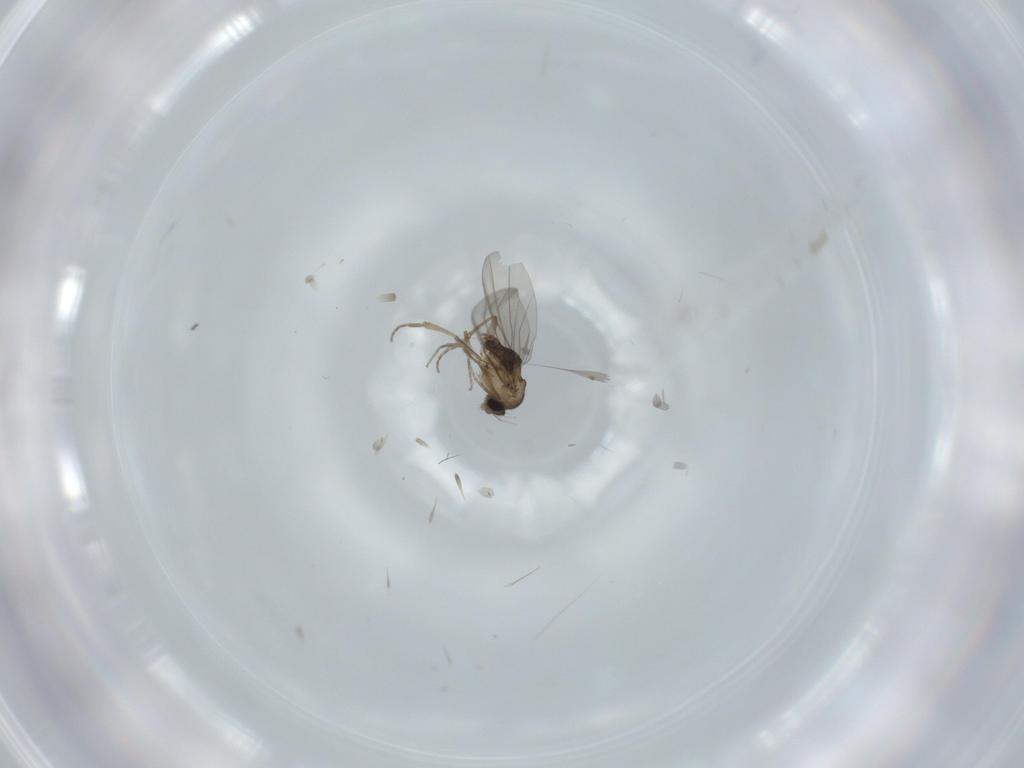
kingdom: Animalia
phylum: Arthropoda
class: Insecta
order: Diptera
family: Phoridae
